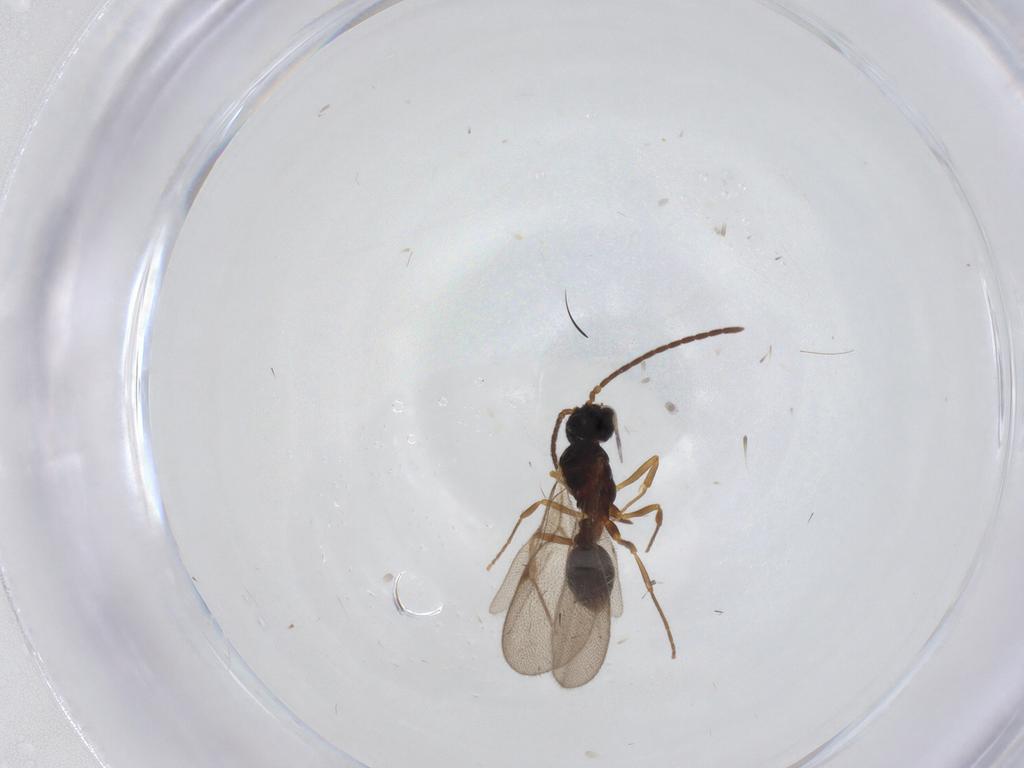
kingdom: Animalia
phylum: Arthropoda
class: Insecta
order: Hymenoptera
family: Formicidae
